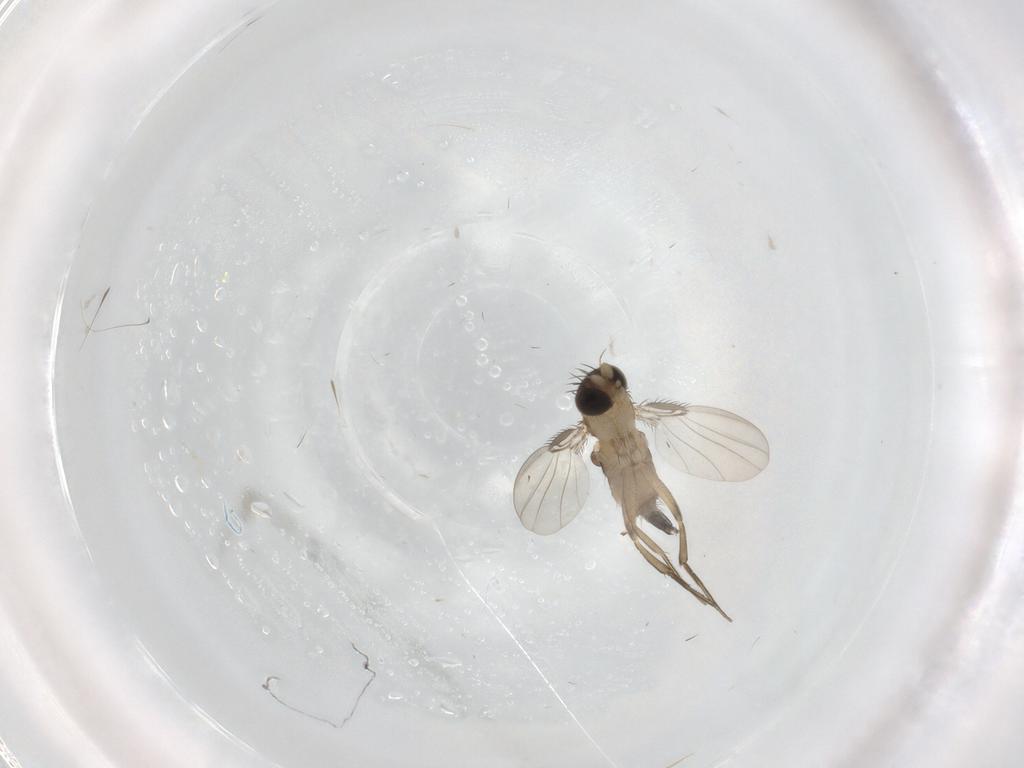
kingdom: Animalia
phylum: Arthropoda
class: Insecta
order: Diptera
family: Phoridae
